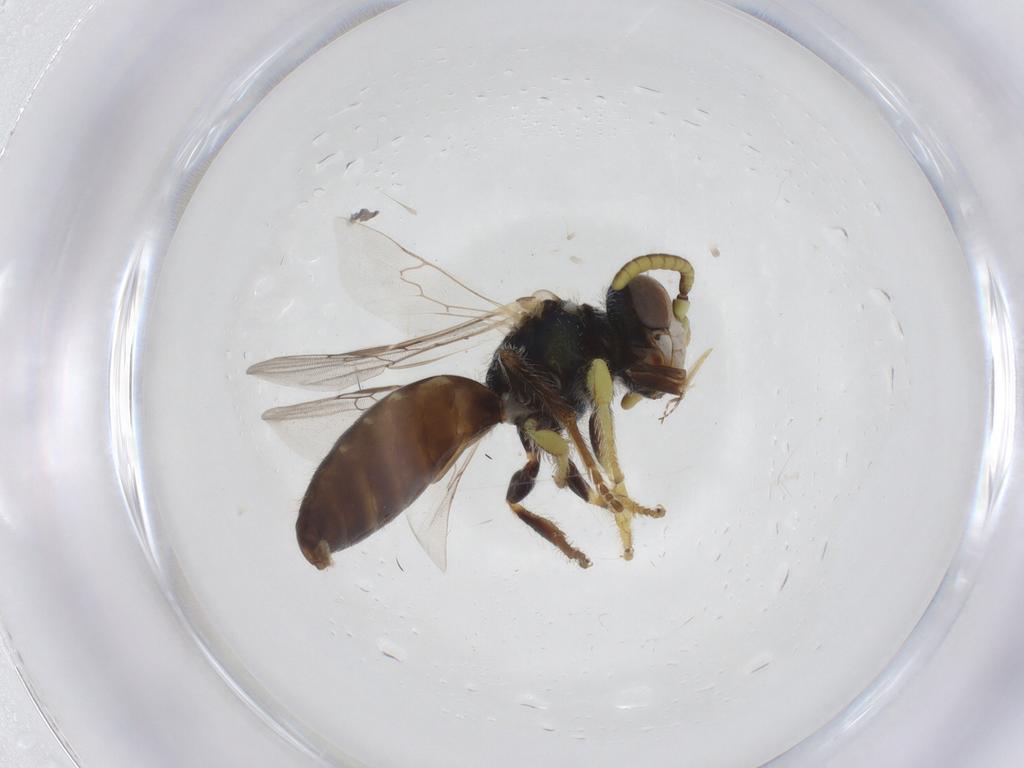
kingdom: Animalia
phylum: Arthropoda
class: Insecta
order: Hymenoptera
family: Andrenidae
